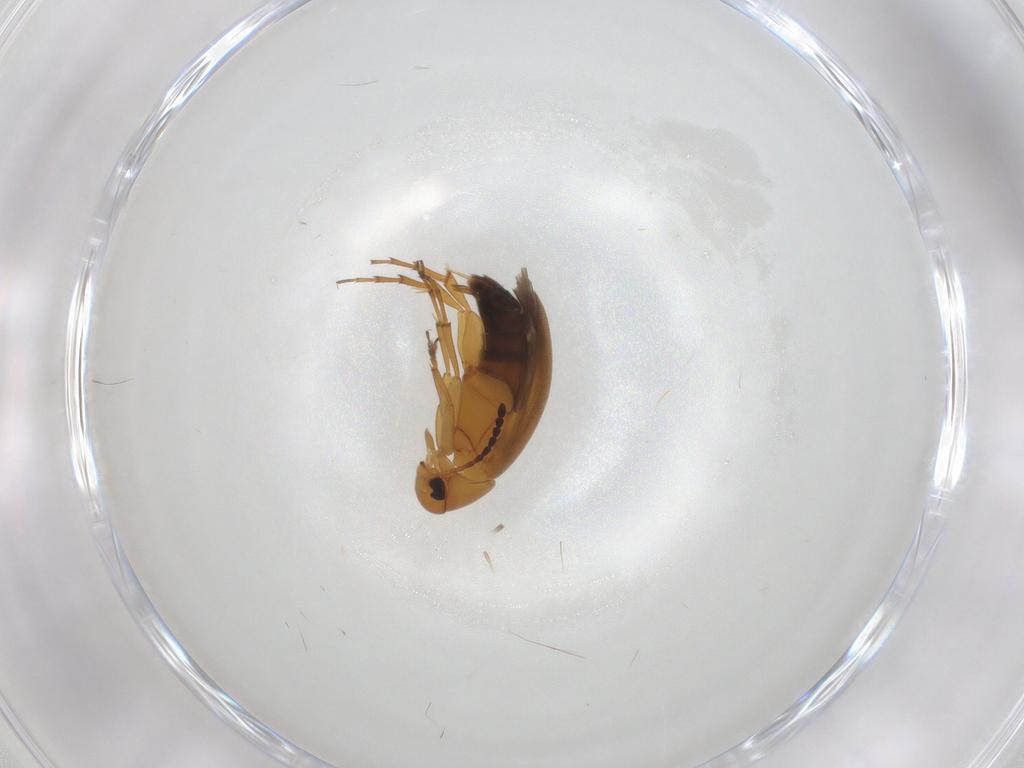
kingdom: Animalia
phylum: Arthropoda
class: Insecta
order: Coleoptera
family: Scraptiidae
